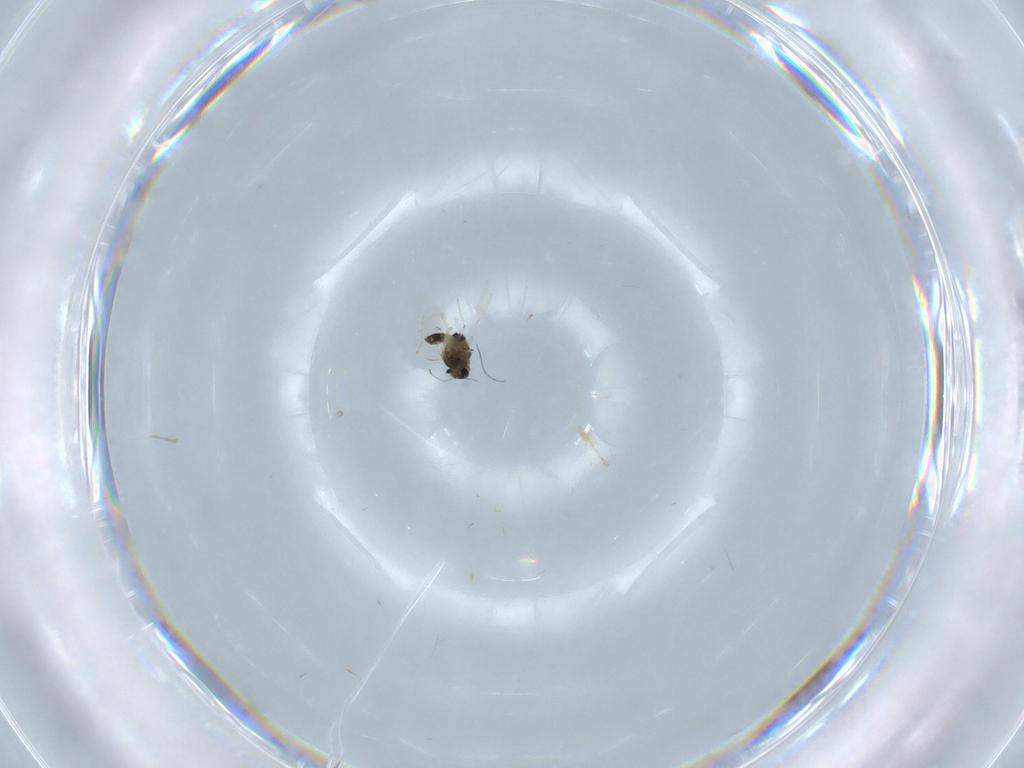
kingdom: Animalia
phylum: Arthropoda
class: Insecta
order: Diptera
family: Chironomidae
